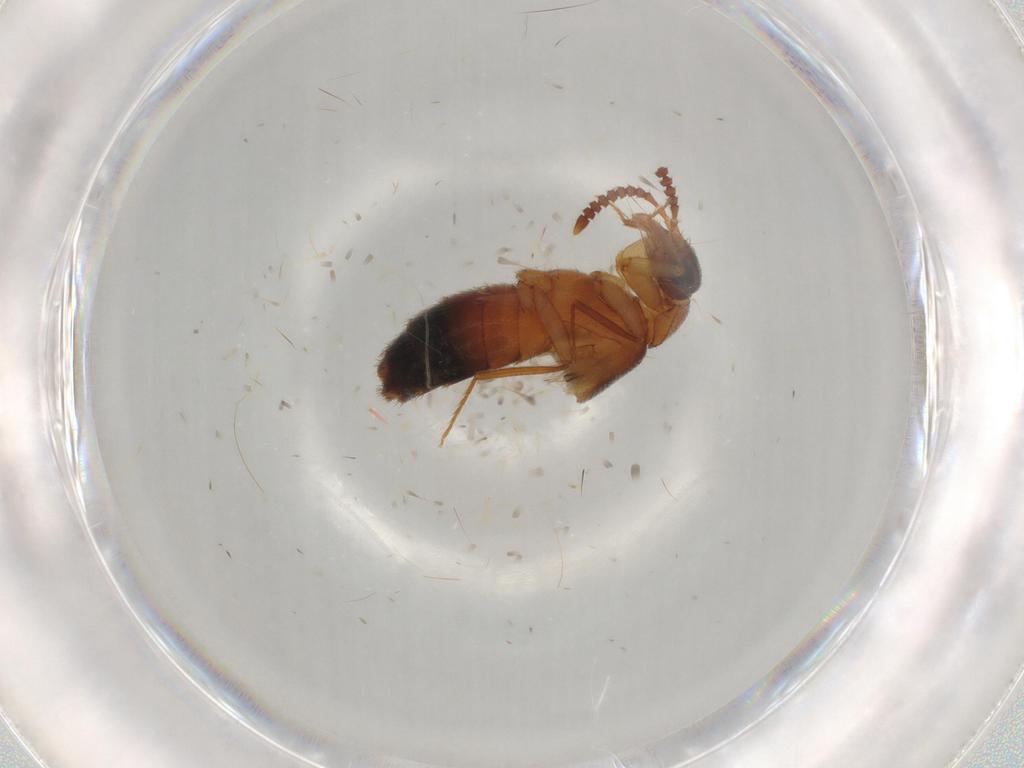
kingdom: Animalia
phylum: Arthropoda
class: Insecta
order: Coleoptera
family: Staphylinidae
